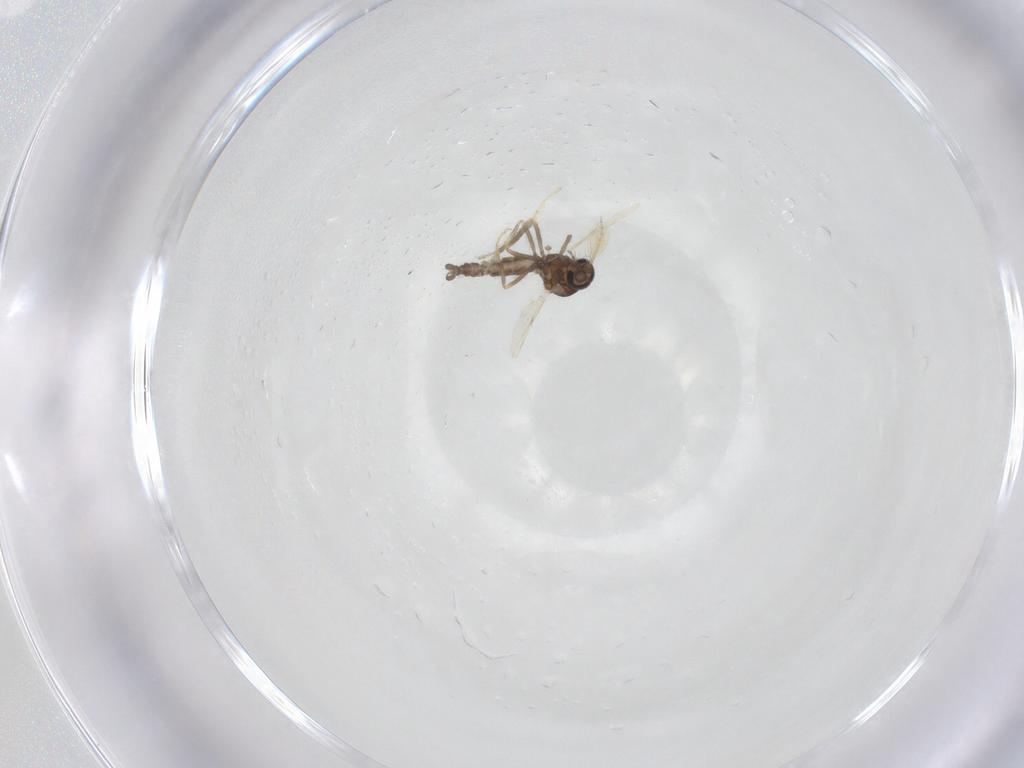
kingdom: Animalia
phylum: Arthropoda
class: Insecta
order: Diptera
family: Ceratopogonidae
